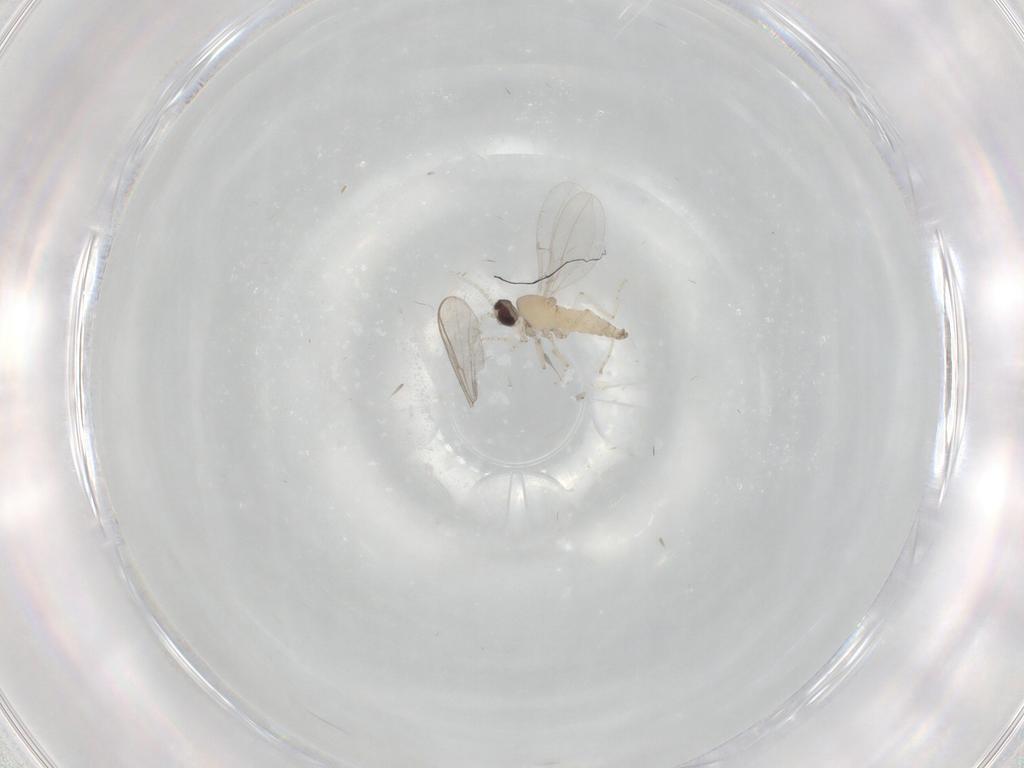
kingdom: Animalia
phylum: Arthropoda
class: Insecta
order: Diptera
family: Cecidomyiidae
